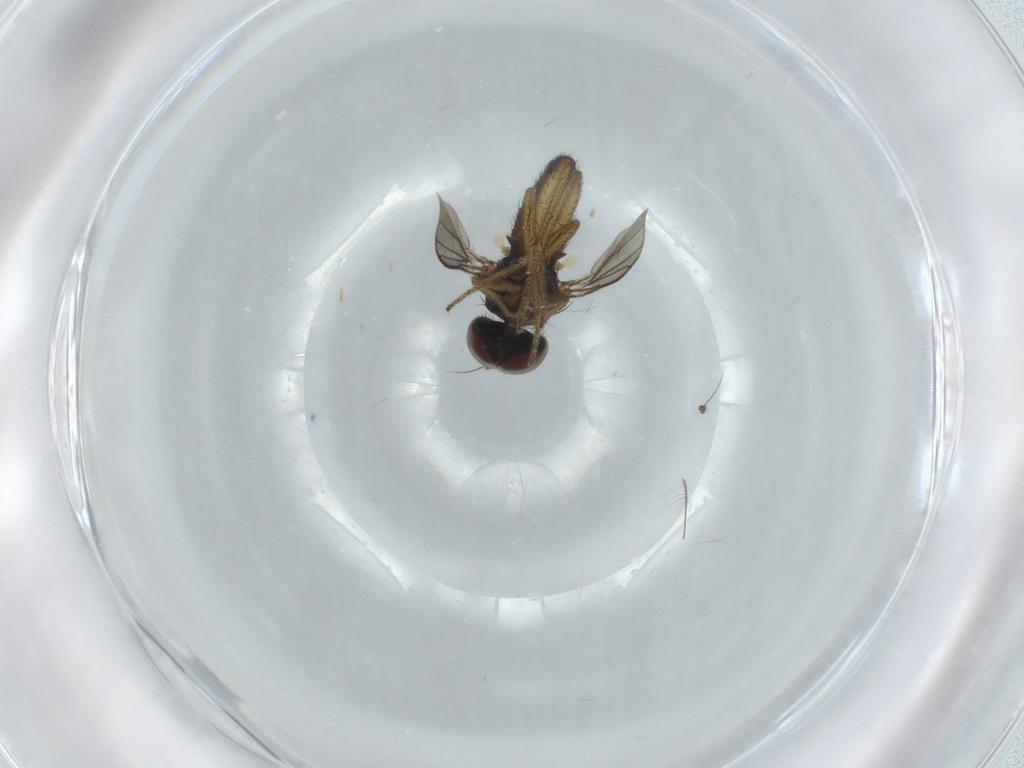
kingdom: Animalia
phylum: Arthropoda
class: Insecta
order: Diptera
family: Dolichopodidae
